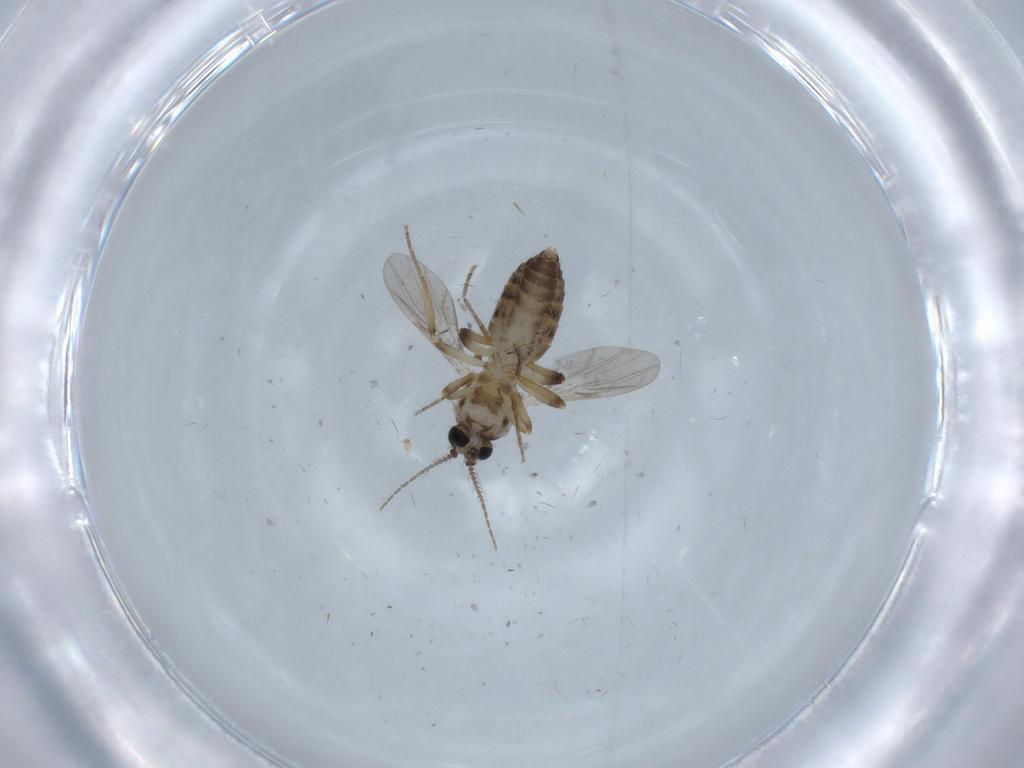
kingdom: Animalia
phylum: Arthropoda
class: Insecta
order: Diptera
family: Ceratopogonidae
